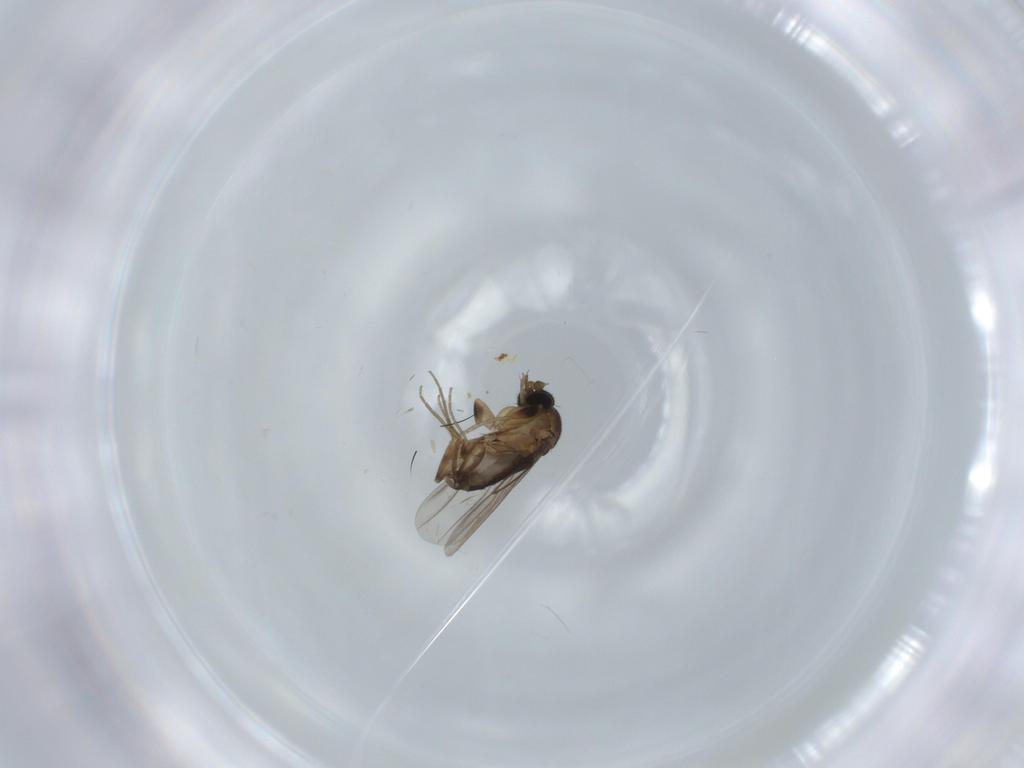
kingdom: Animalia
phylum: Arthropoda
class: Insecta
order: Diptera
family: Phoridae
